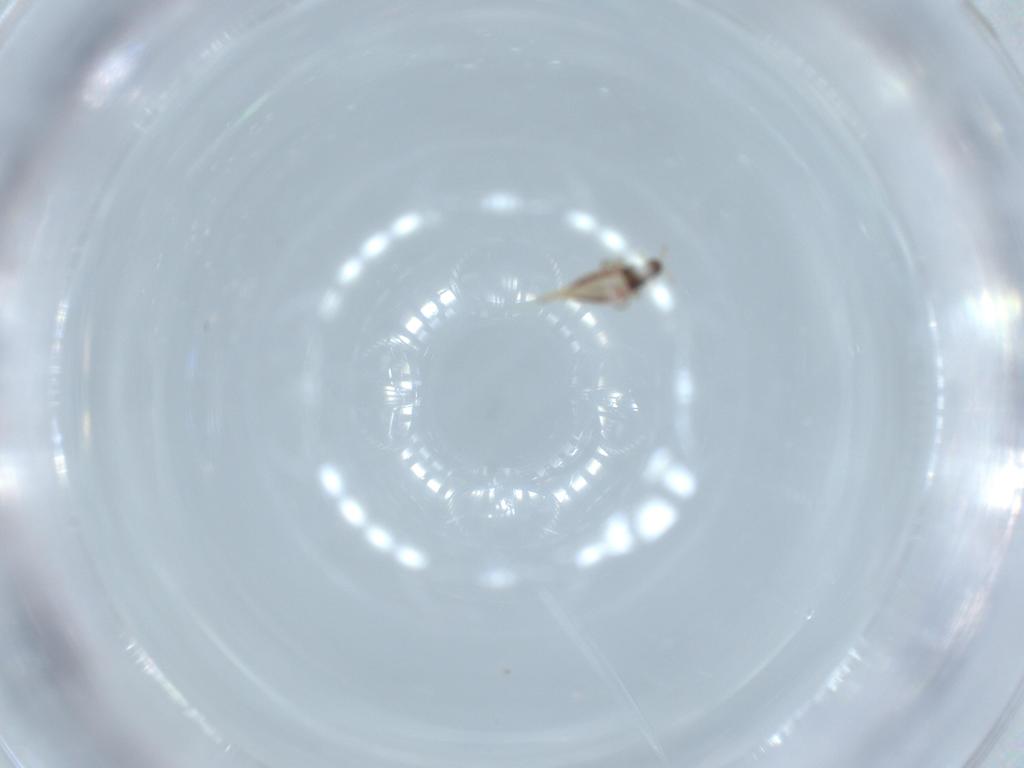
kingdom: Animalia
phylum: Arthropoda
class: Insecta
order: Thysanoptera
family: Phlaeothripidae
